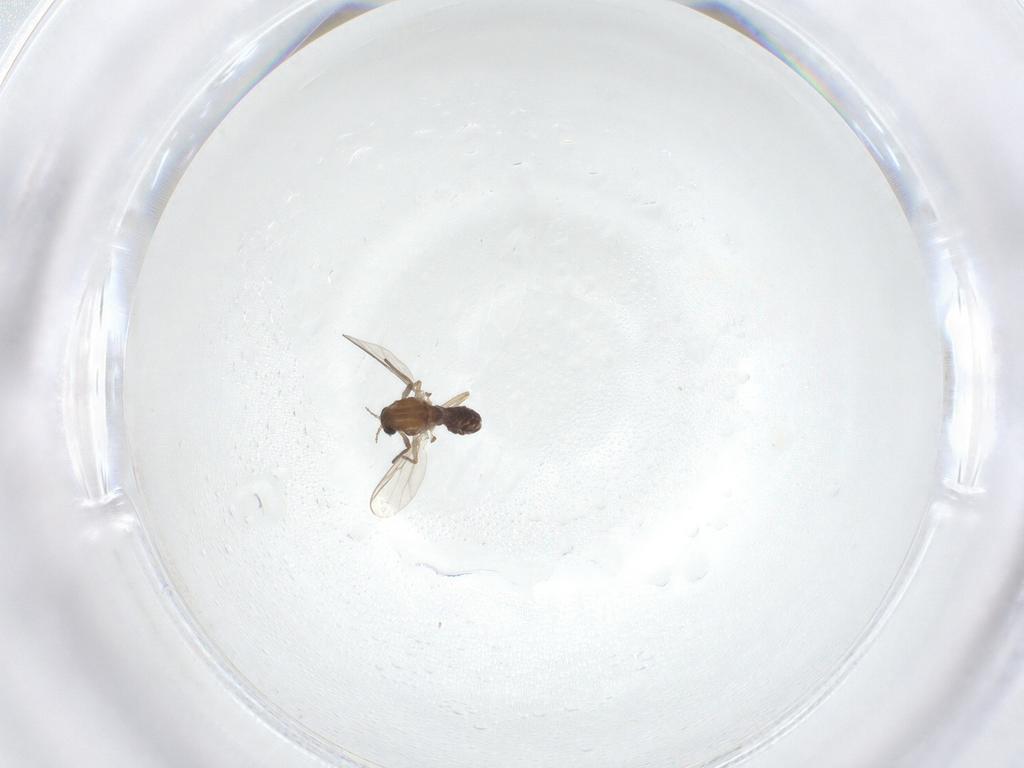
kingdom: Animalia
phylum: Arthropoda
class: Insecta
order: Diptera
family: Chironomidae
